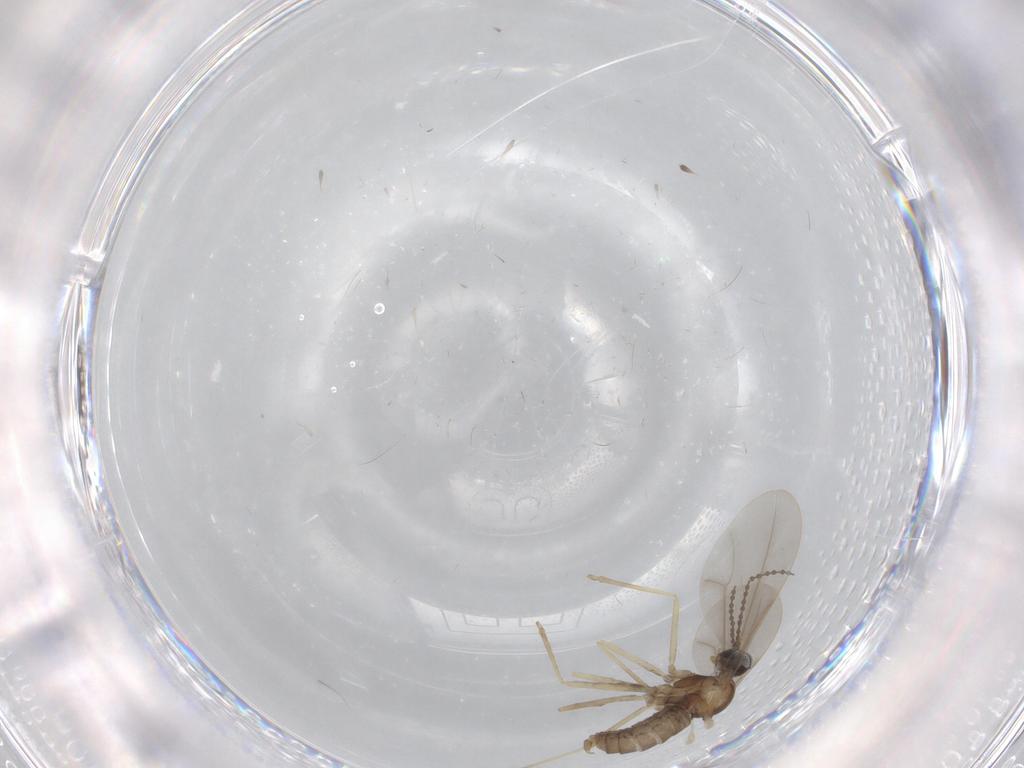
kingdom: Animalia
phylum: Arthropoda
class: Insecta
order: Diptera
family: Cecidomyiidae
